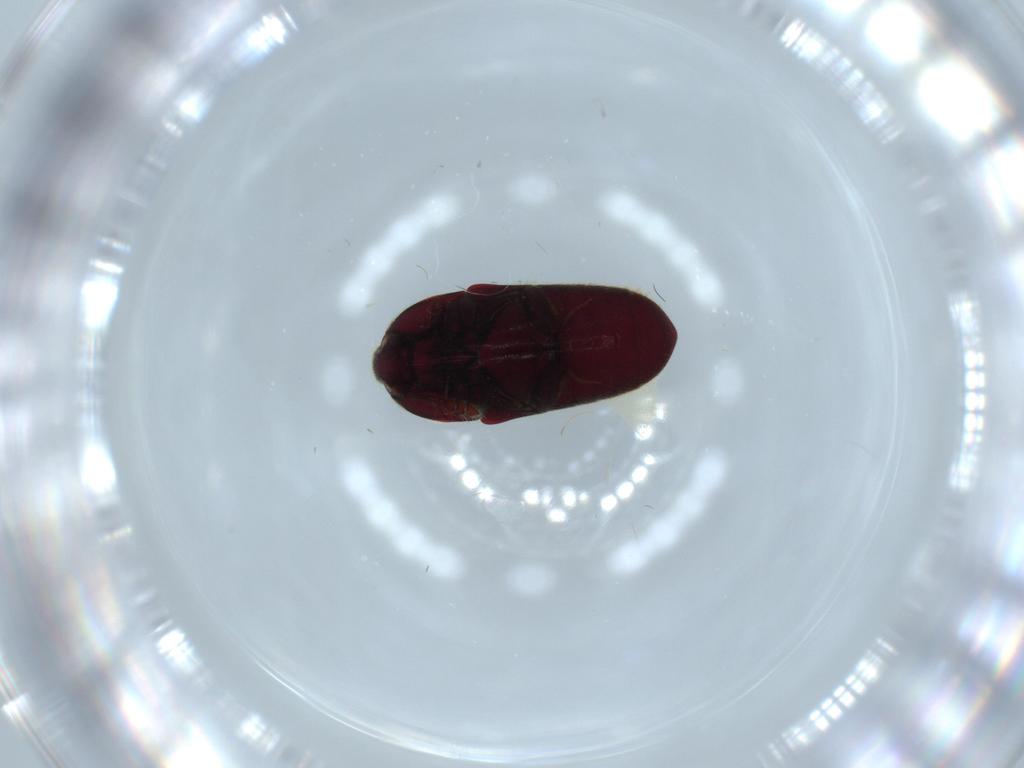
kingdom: Animalia
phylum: Arthropoda
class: Insecta
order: Coleoptera
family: Throscidae
